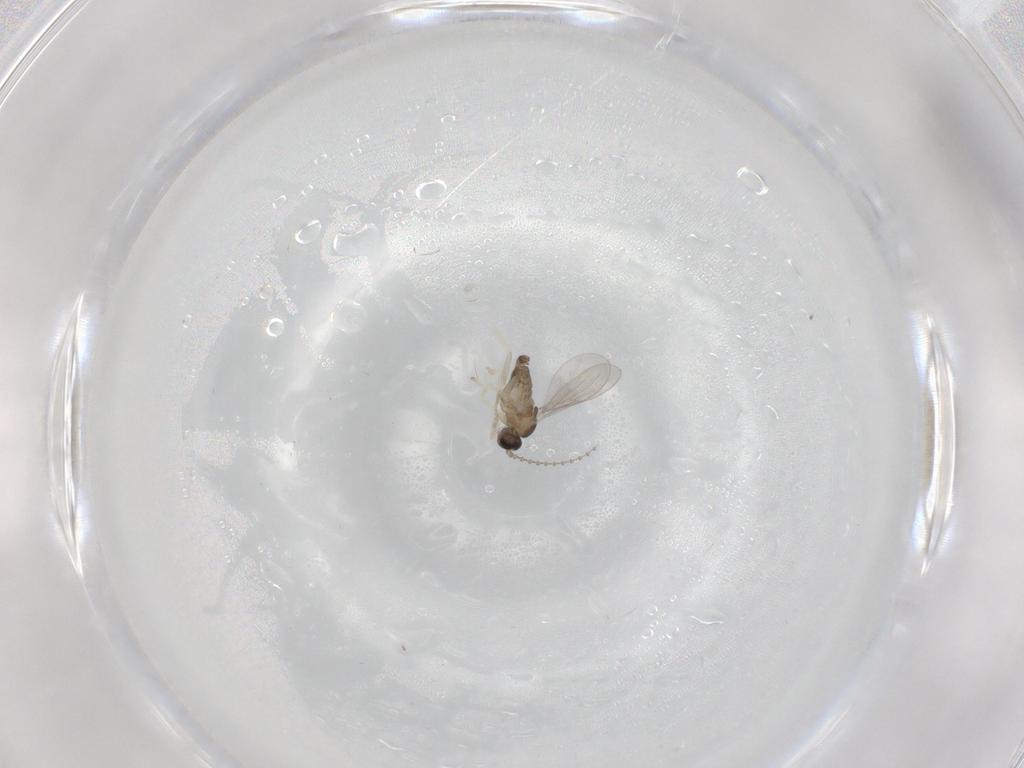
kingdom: Animalia
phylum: Arthropoda
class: Insecta
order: Diptera
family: Cecidomyiidae
